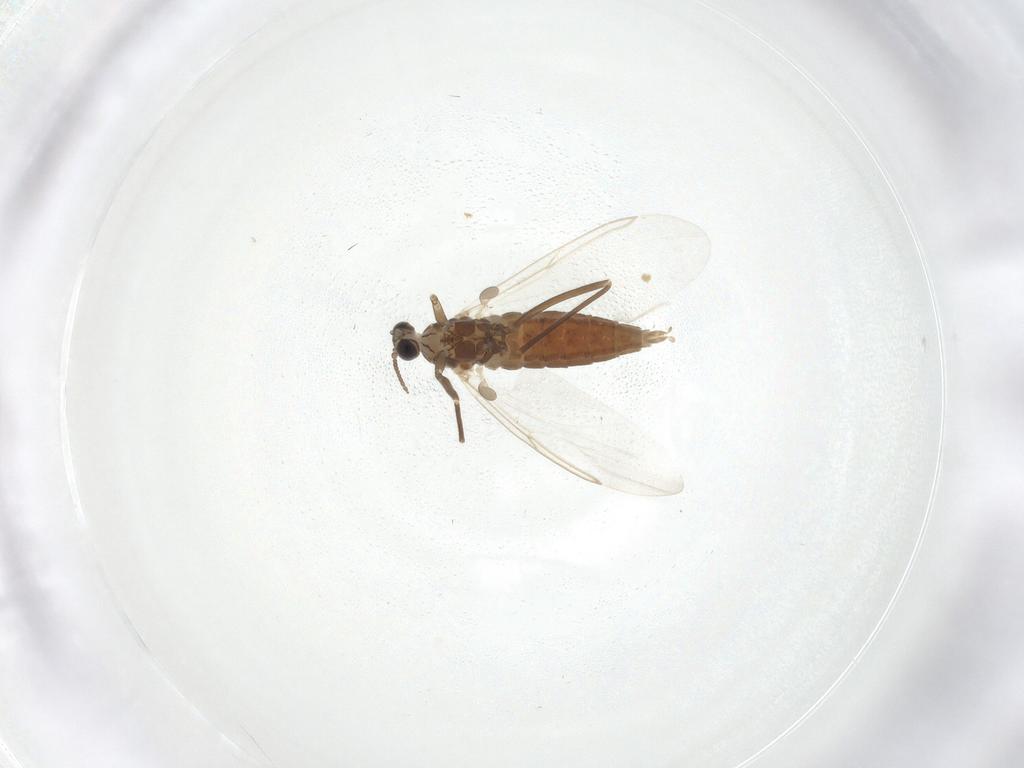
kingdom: Animalia
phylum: Arthropoda
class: Insecta
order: Diptera
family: Cecidomyiidae
